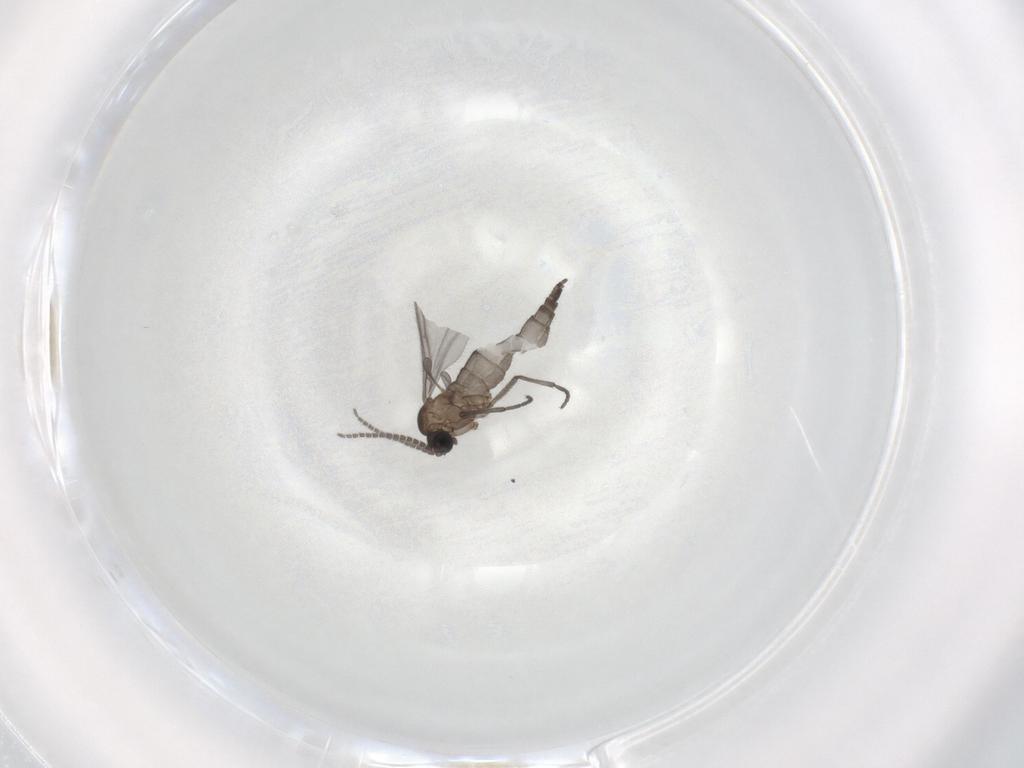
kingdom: Animalia
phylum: Arthropoda
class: Insecta
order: Diptera
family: Sciaridae
